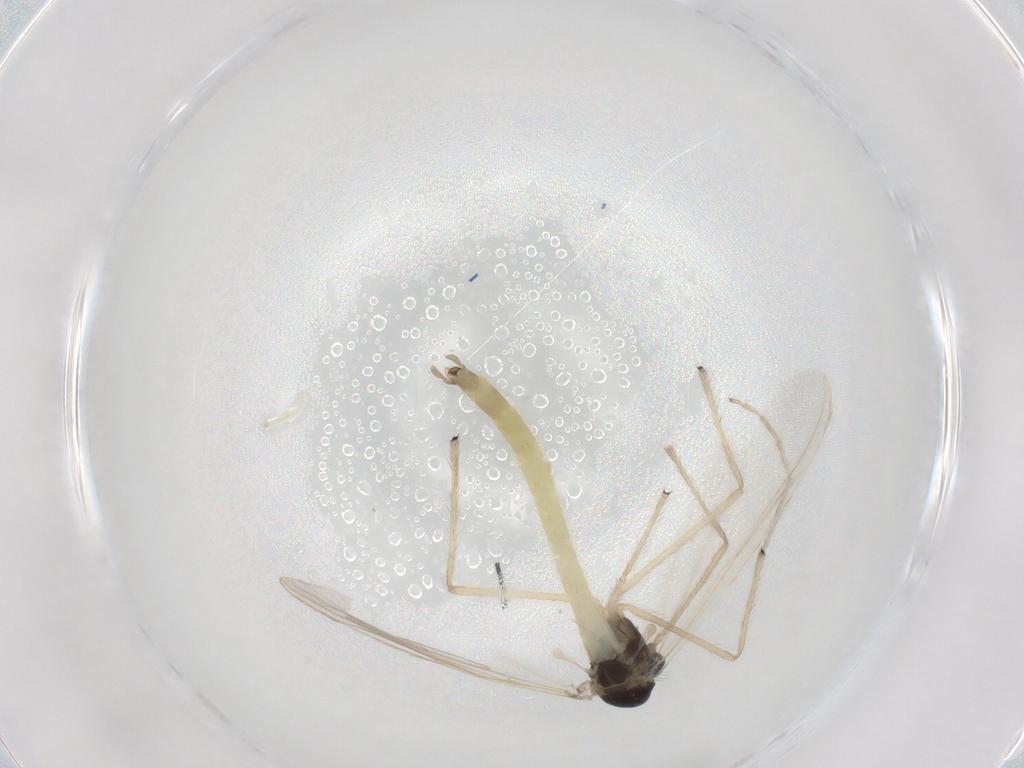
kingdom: Animalia
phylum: Arthropoda
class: Insecta
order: Diptera
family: Chironomidae
